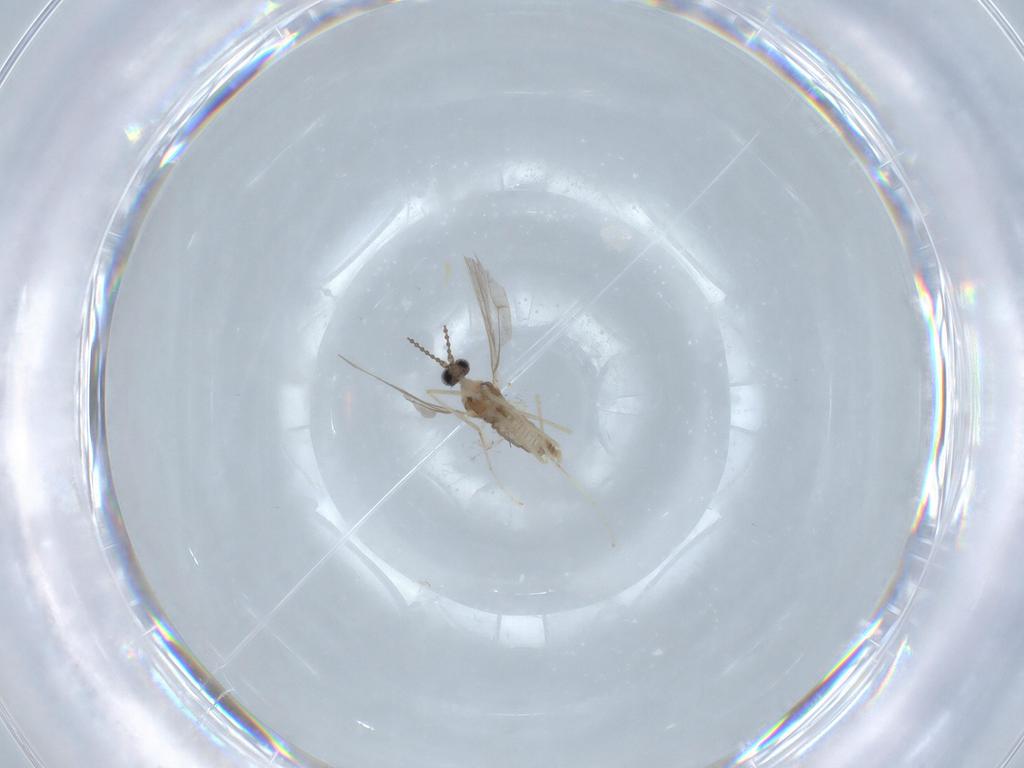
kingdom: Animalia
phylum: Arthropoda
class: Insecta
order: Diptera
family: Cecidomyiidae
